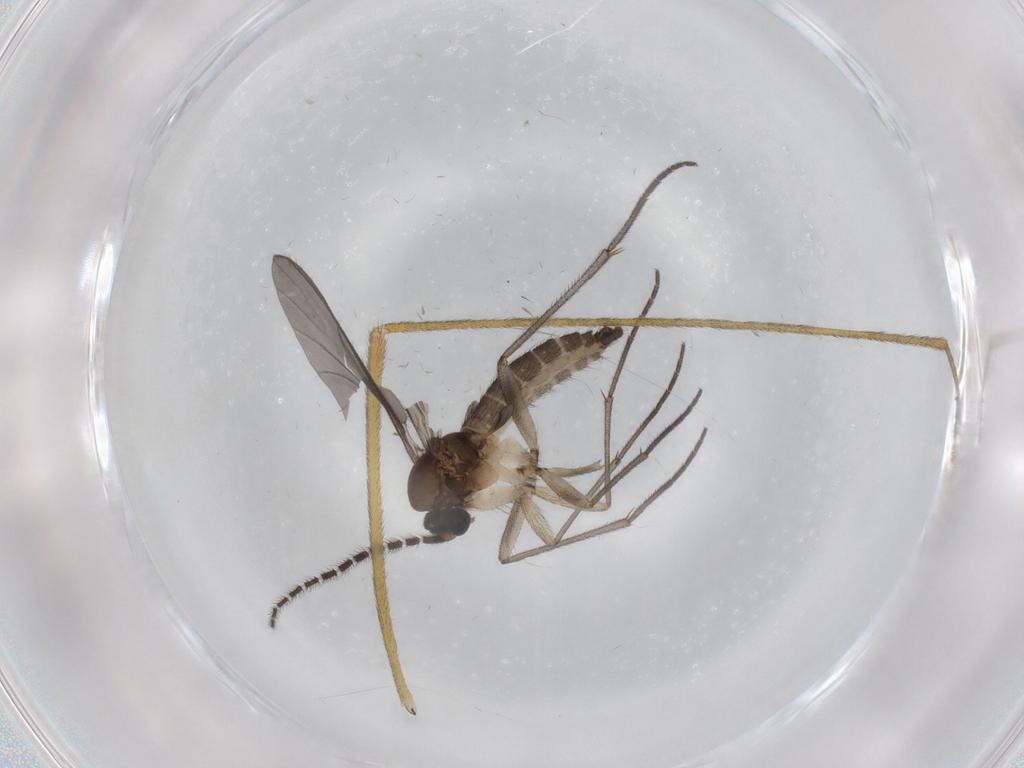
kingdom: Animalia
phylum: Arthropoda
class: Insecta
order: Diptera
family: Sciaridae
